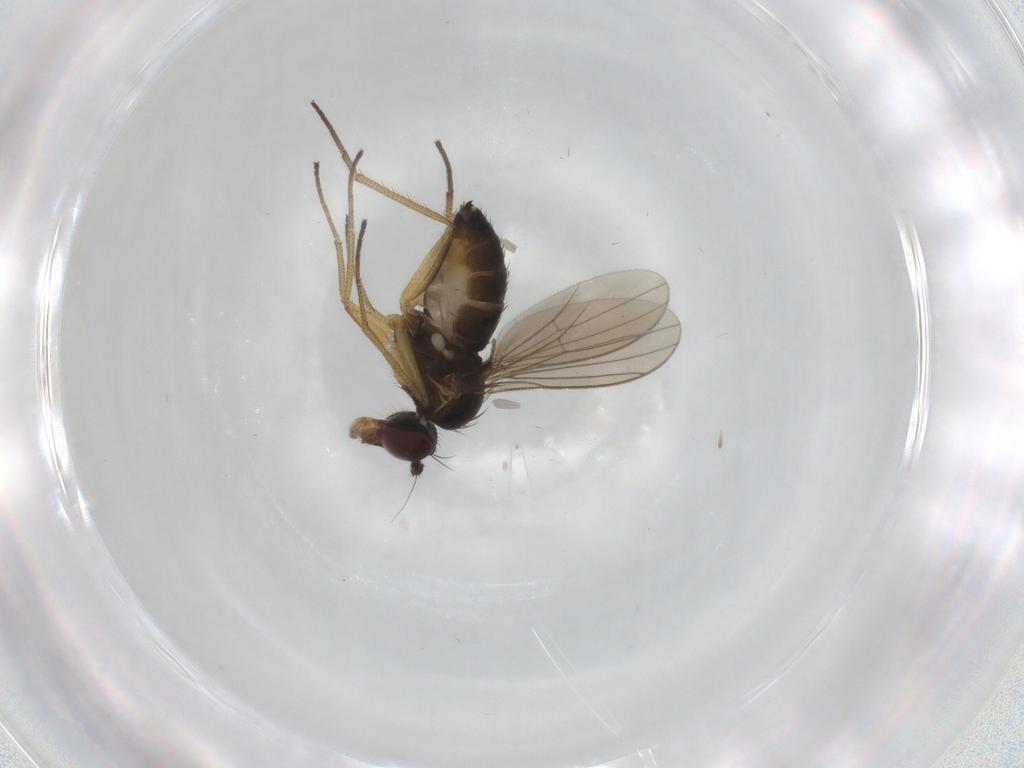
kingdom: Animalia
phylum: Arthropoda
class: Insecta
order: Diptera
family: Dolichopodidae
